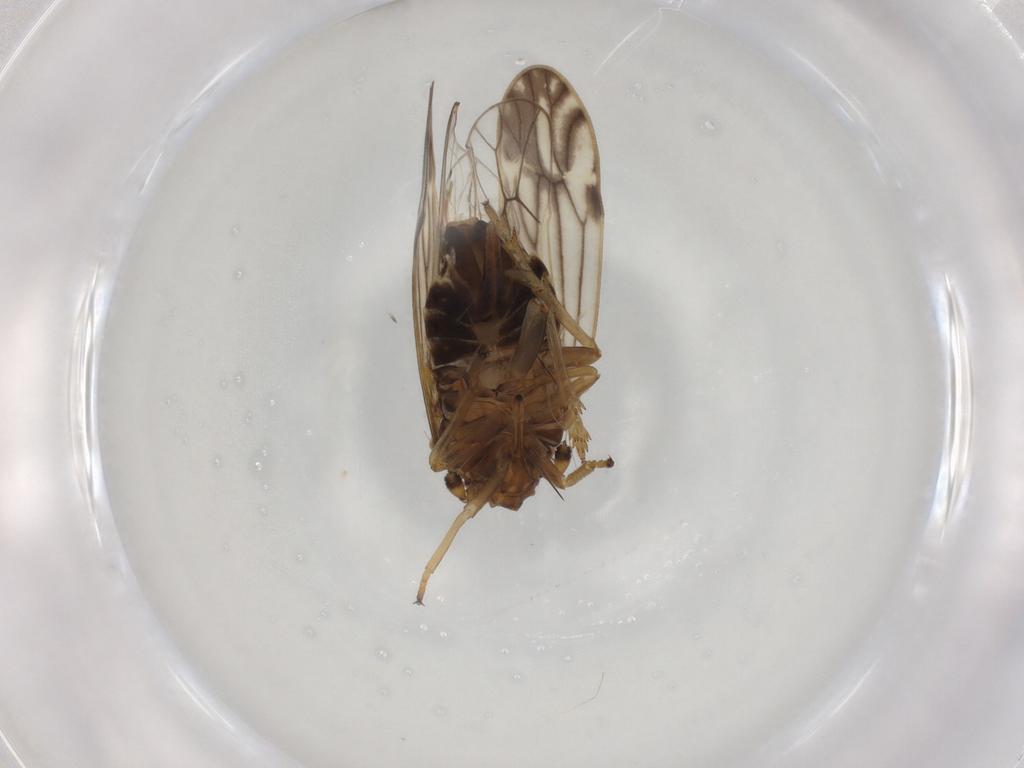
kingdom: Animalia
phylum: Arthropoda
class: Insecta
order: Hemiptera
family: Delphacidae
